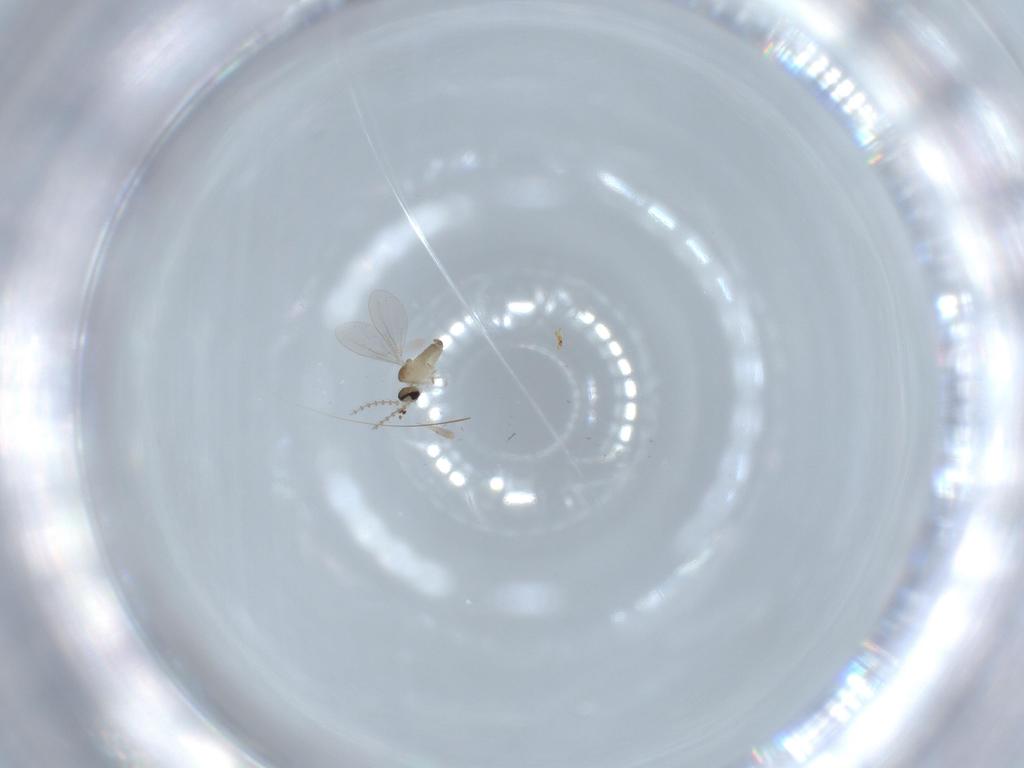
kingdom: Animalia
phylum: Arthropoda
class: Insecta
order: Diptera
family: Cecidomyiidae
